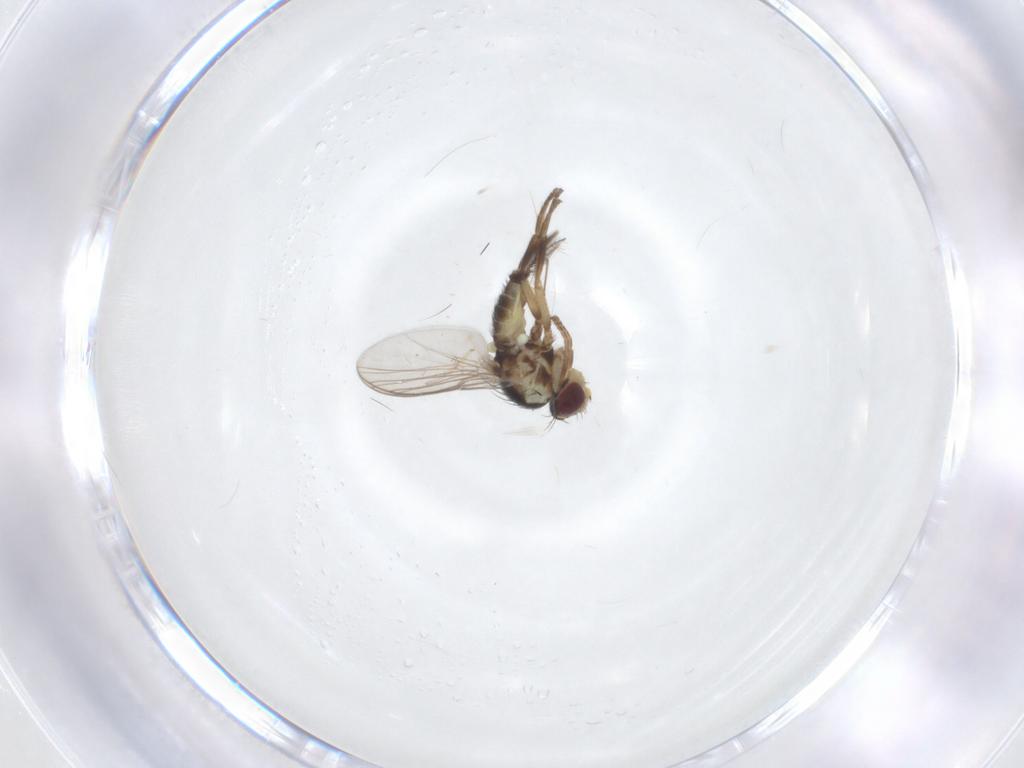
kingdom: Animalia
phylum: Arthropoda
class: Insecta
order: Diptera
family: Agromyzidae
